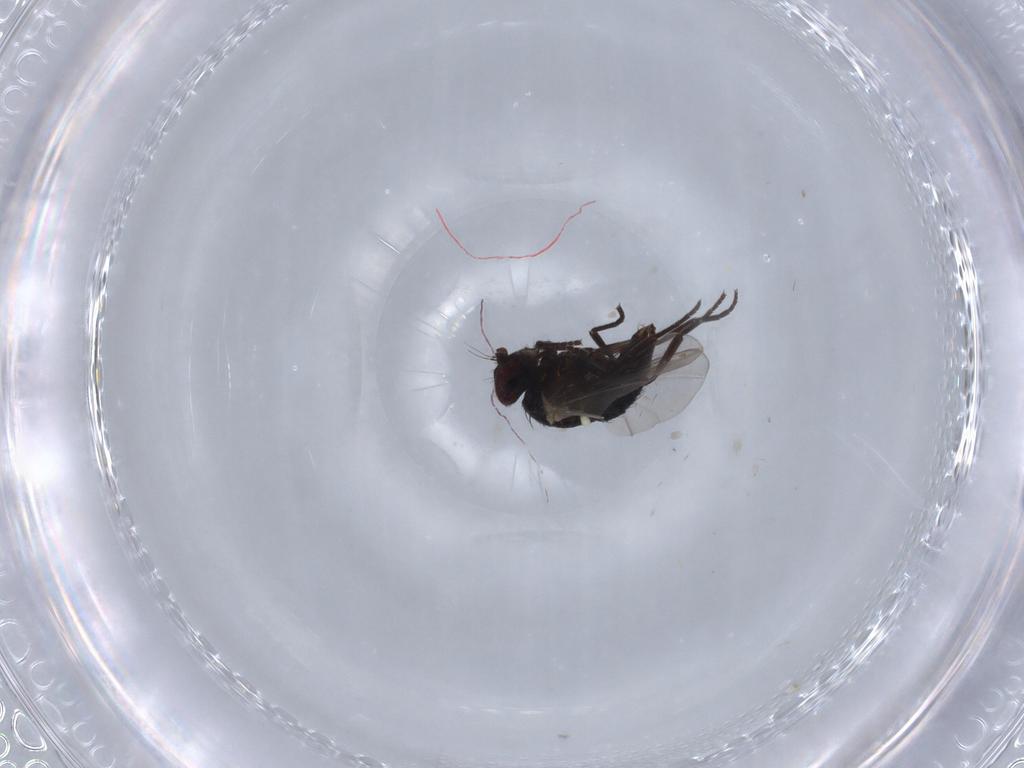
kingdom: Animalia
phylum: Arthropoda
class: Insecta
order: Diptera
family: Agromyzidae
